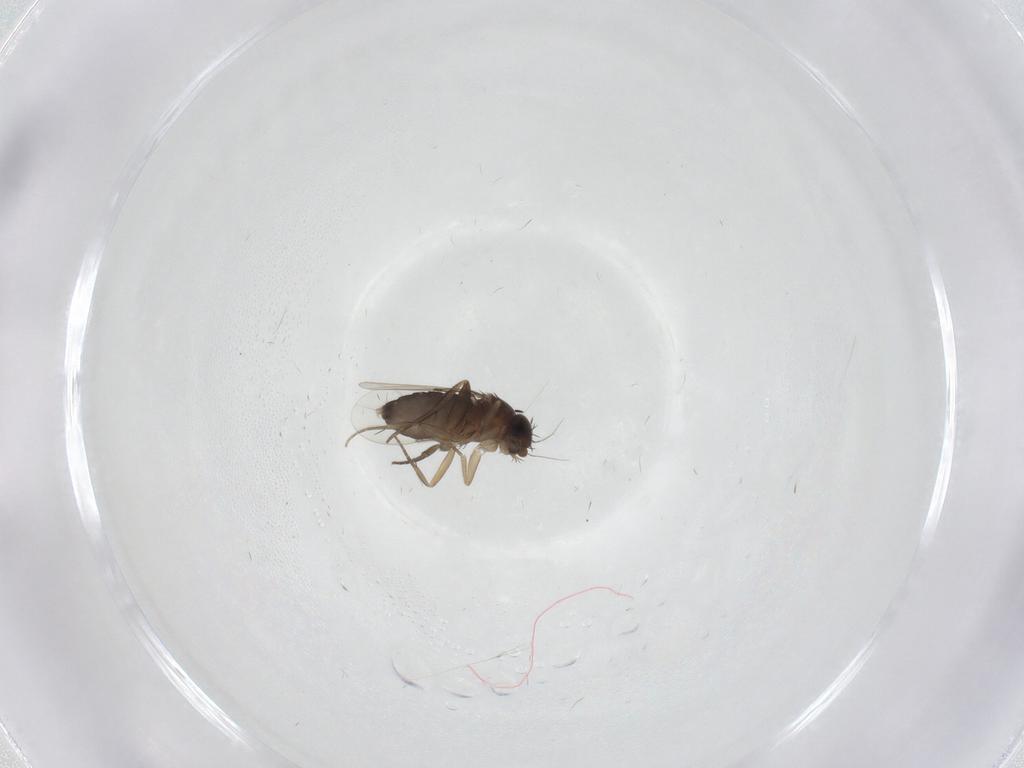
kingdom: Animalia
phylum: Arthropoda
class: Insecta
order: Diptera
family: Phoridae
